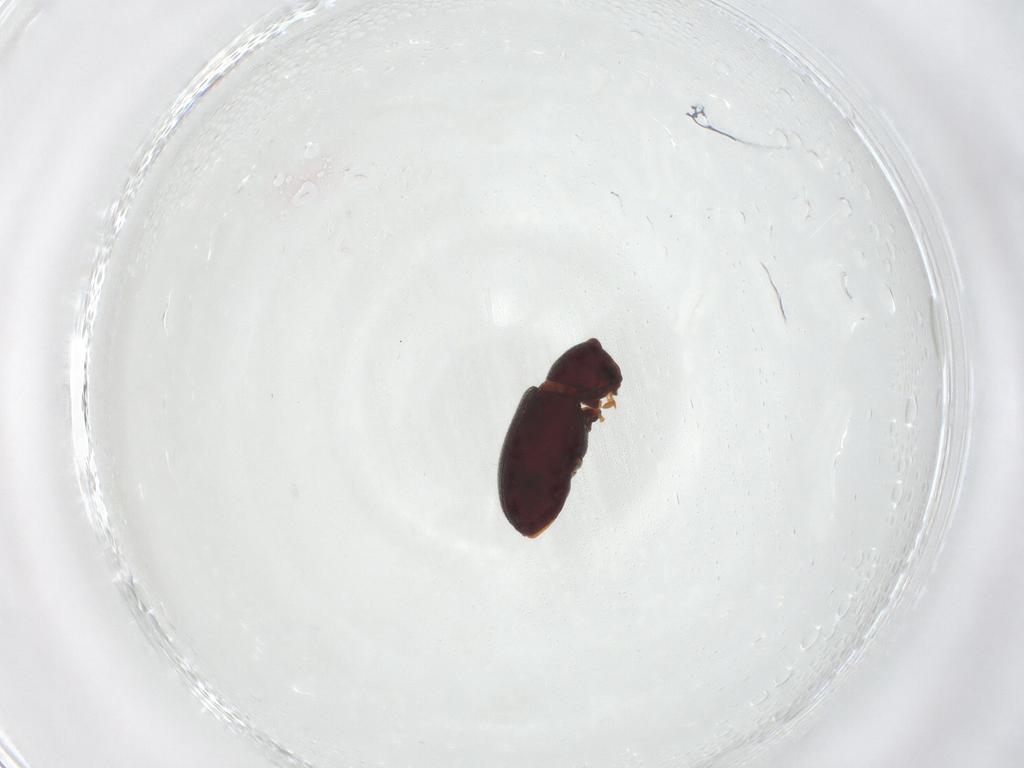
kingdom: Animalia
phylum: Arthropoda
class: Insecta
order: Coleoptera
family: Ptinidae
